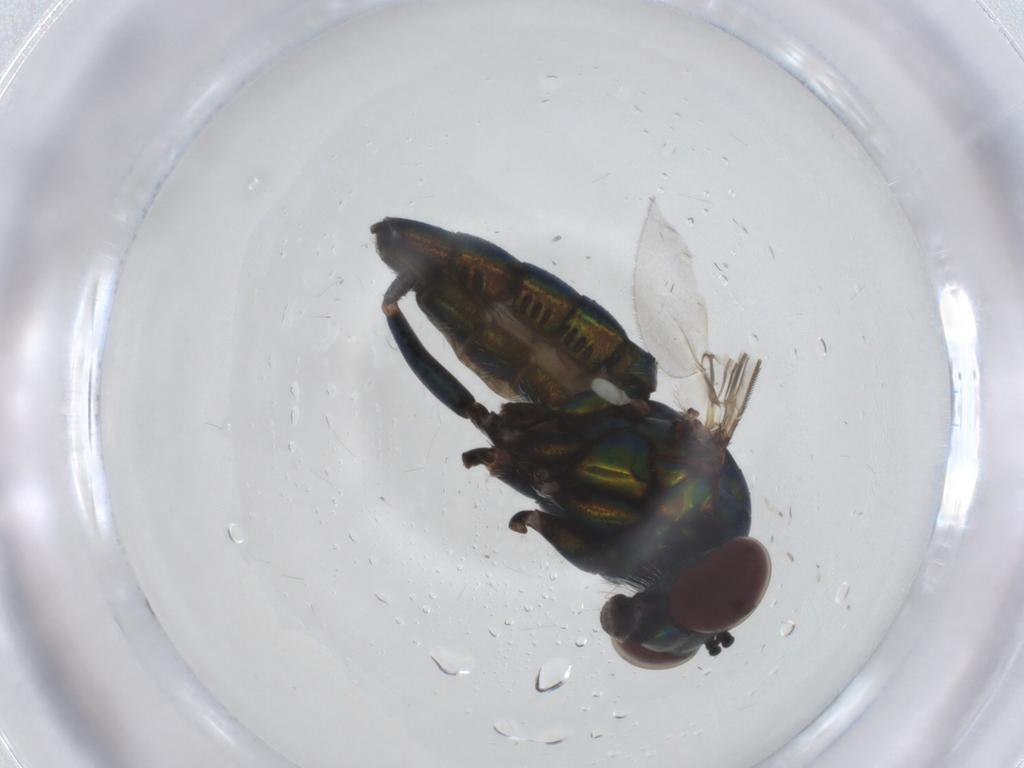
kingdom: Animalia
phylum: Arthropoda
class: Insecta
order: Diptera
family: Dolichopodidae
